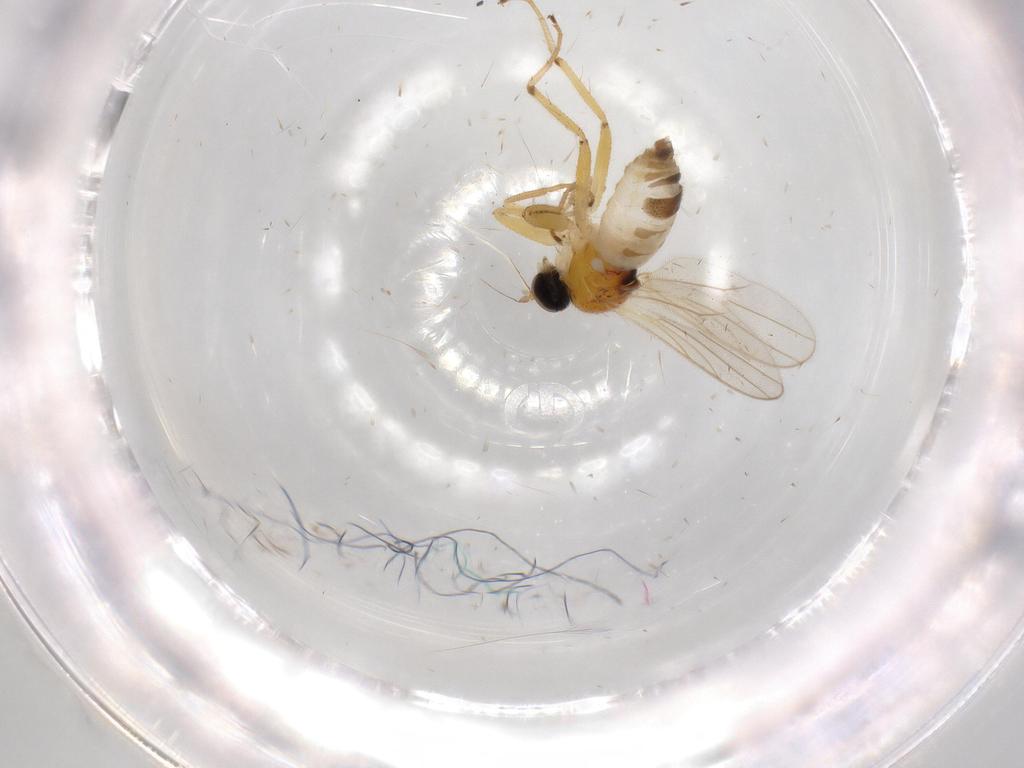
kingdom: Animalia
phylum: Arthropoda
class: Insecta
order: Diptera
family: Hybotidae
